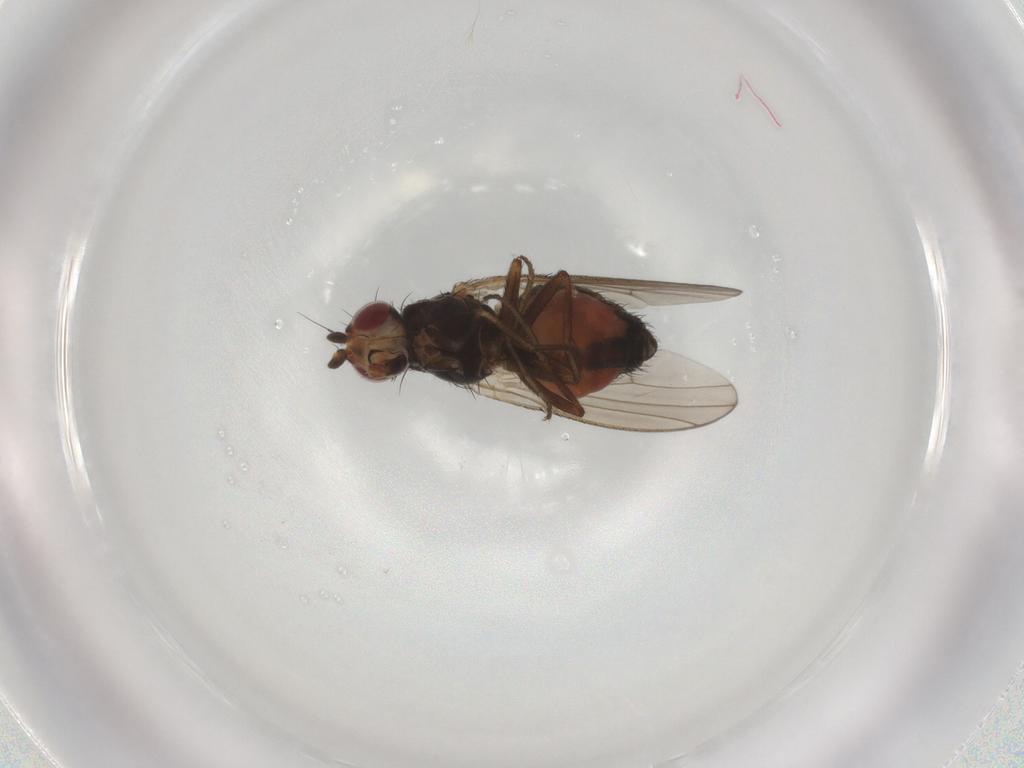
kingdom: Animalia
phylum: Arthropoda
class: Insecta
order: Diptera
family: Heleomyzidae
